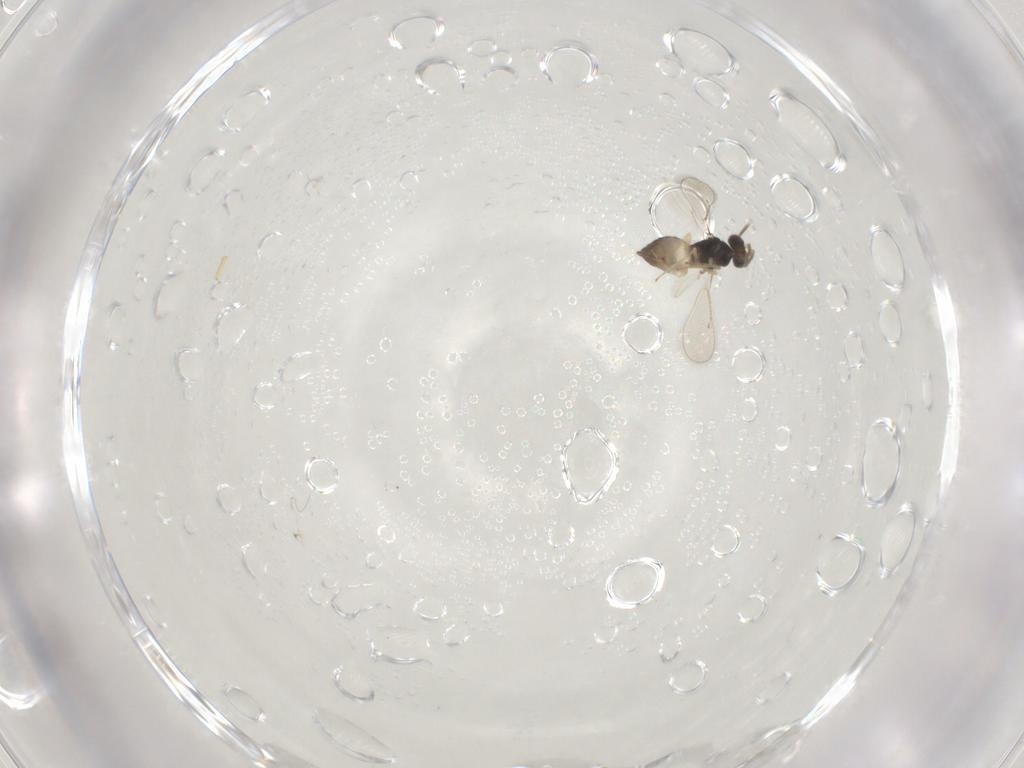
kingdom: Animalia
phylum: Arthropoda
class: Insecta
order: Hymenoptera
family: Eulophidae
